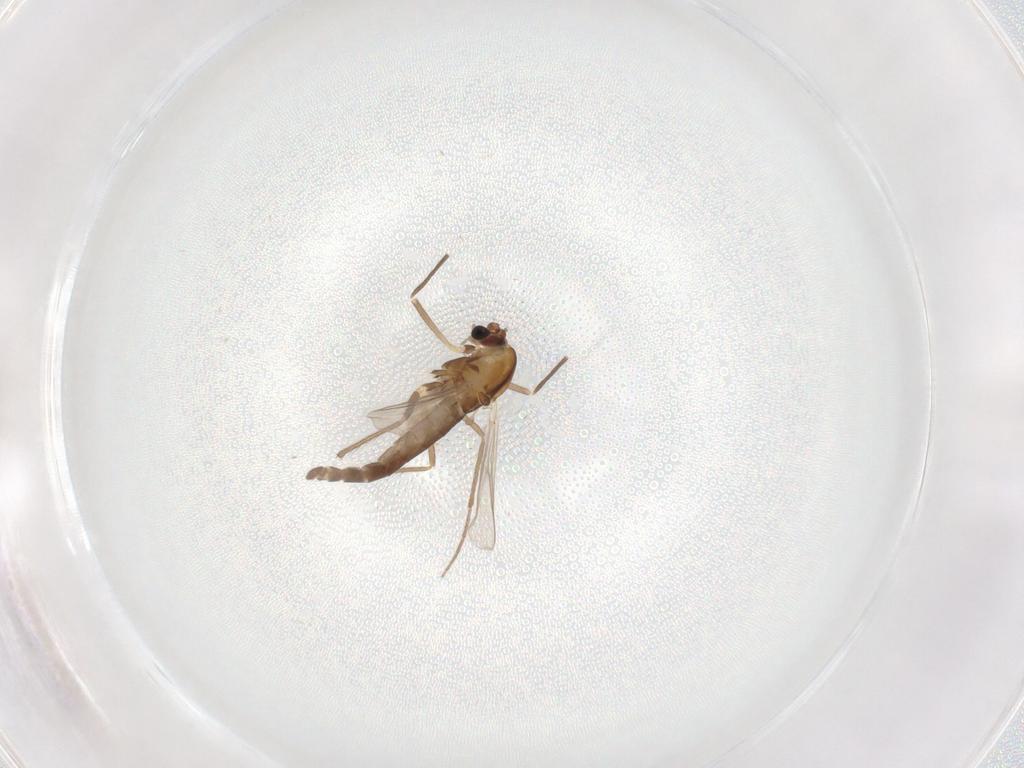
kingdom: Animalia
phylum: Arthropoda
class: Insecta
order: Diptera
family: Chironomidae
